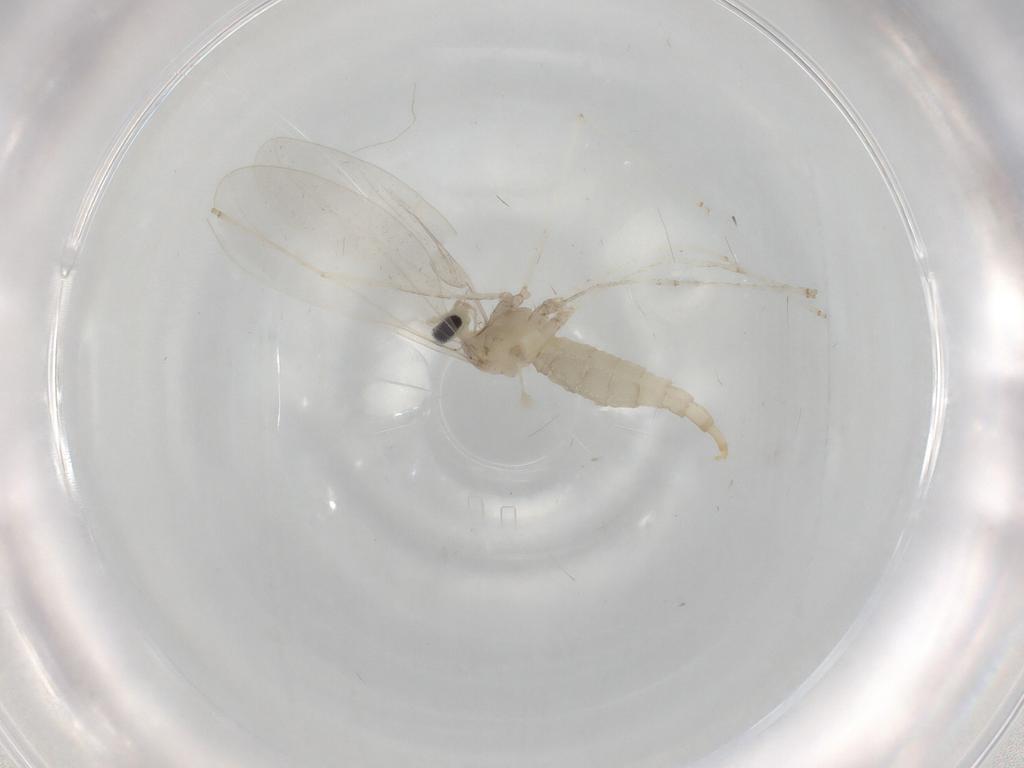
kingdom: Animalia
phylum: Arthropoda
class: Insecta
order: Diptera
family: Cecidomyiidae
